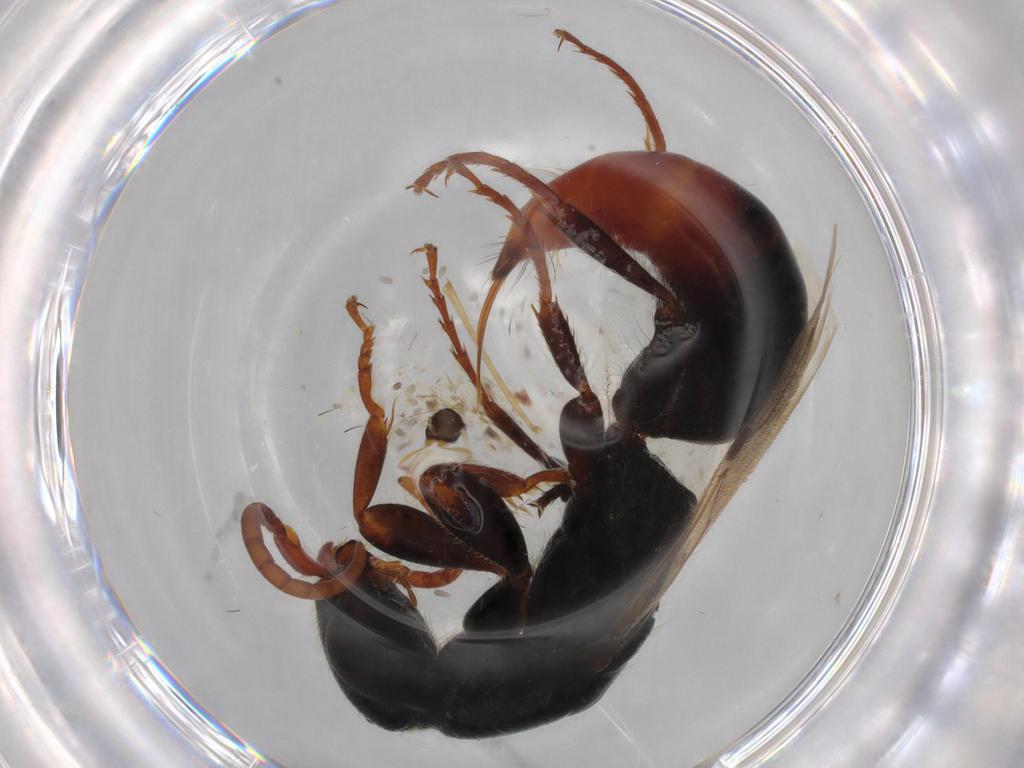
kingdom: Animalia
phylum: Arthropoda
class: Insecta
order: Hymenoptera
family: Bethylidae
